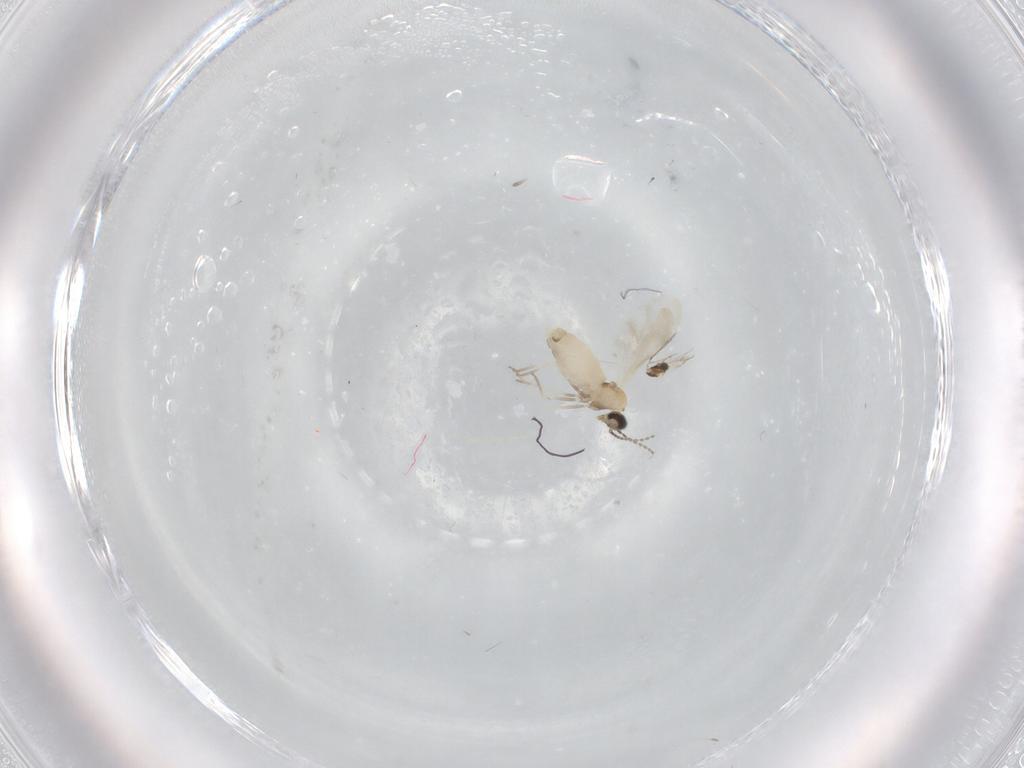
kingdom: Animalia
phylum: Arthropoda
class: Insecta
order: Diptera
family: Cecidomyiidae
